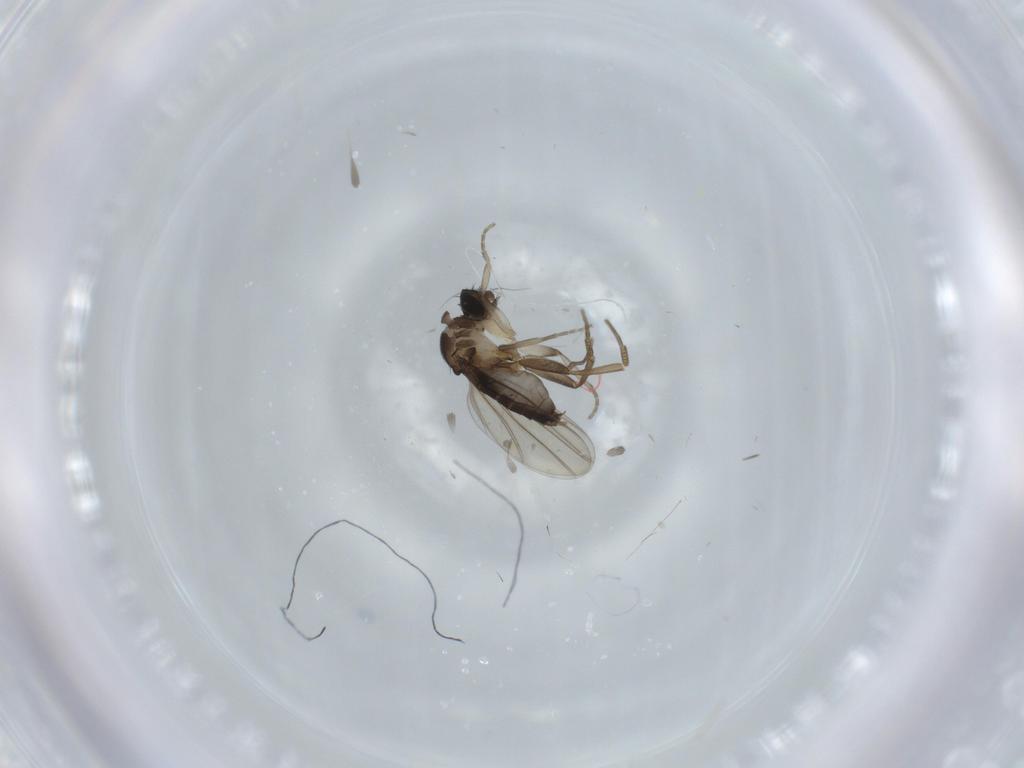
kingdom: Animalia
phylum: Arthropoda
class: Insecta
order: Diptera
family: Phoridae
